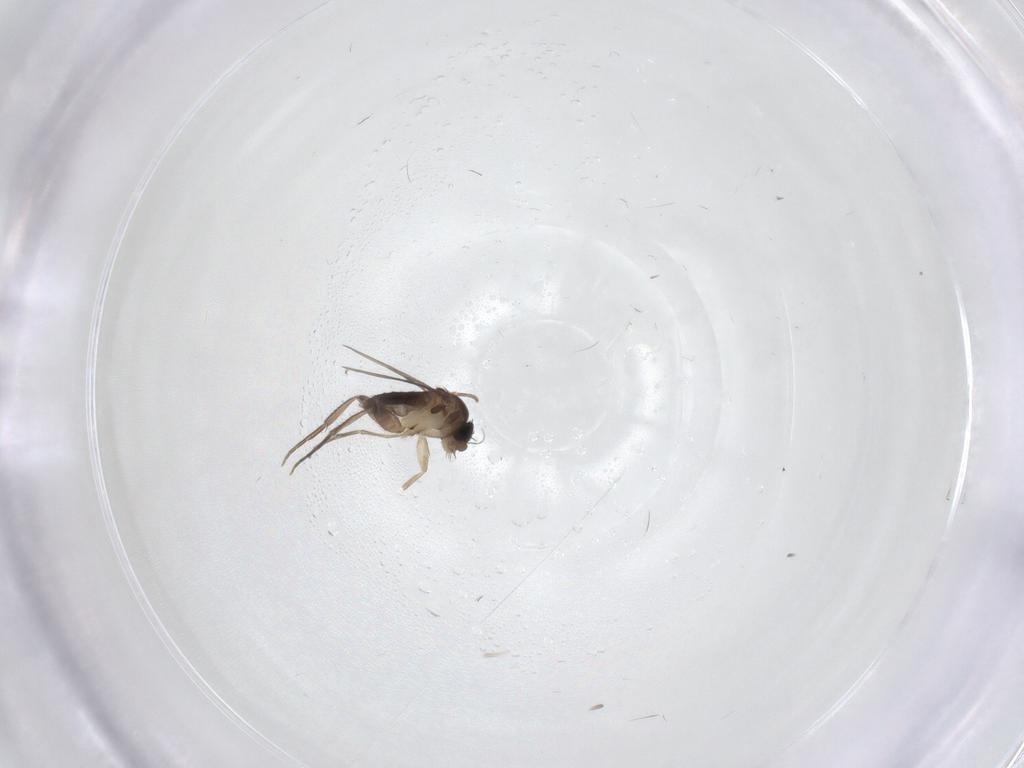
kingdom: Animalia
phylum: Arthropoda
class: Insecta
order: Diptera
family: Phoridae
